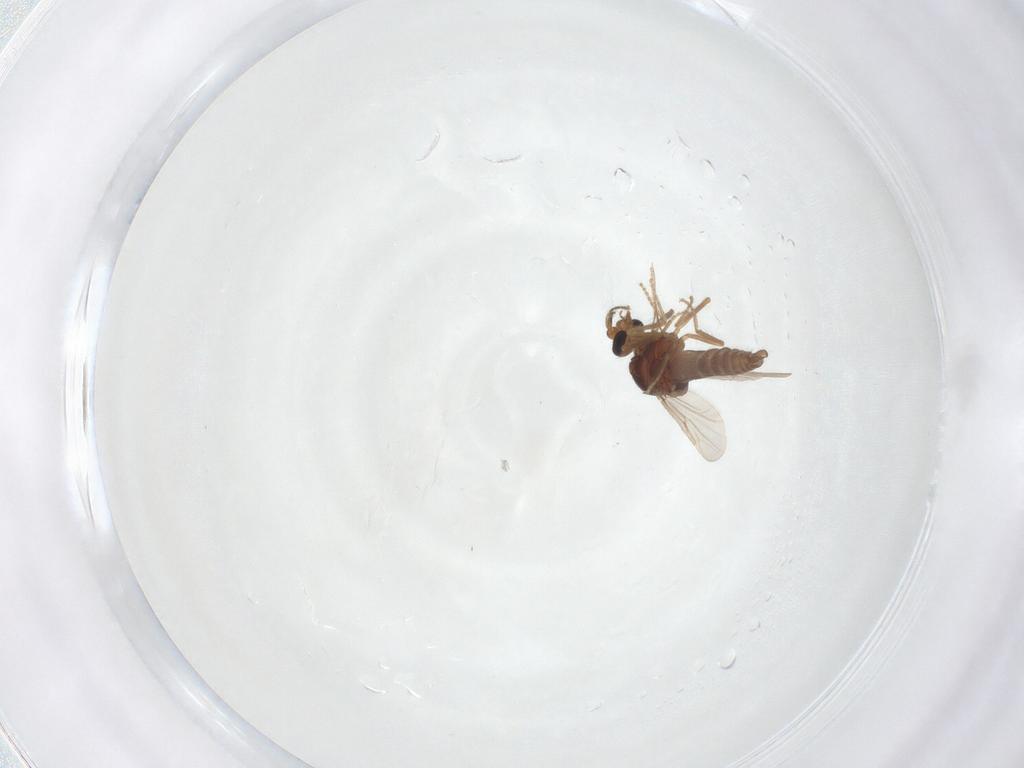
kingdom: Animalia
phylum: Arthropoda
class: Insecta
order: Diptera
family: Ceratopogonidae
